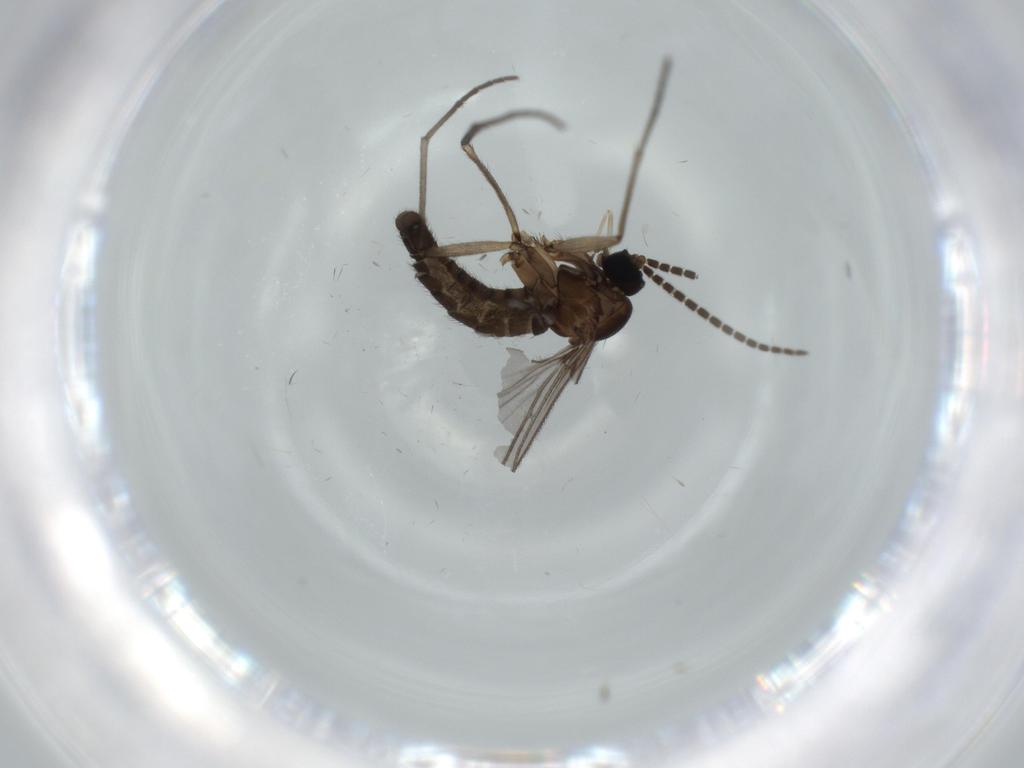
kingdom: Animalia
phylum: Arthropoda
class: Insecta
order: Diptera
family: Sciaridae
